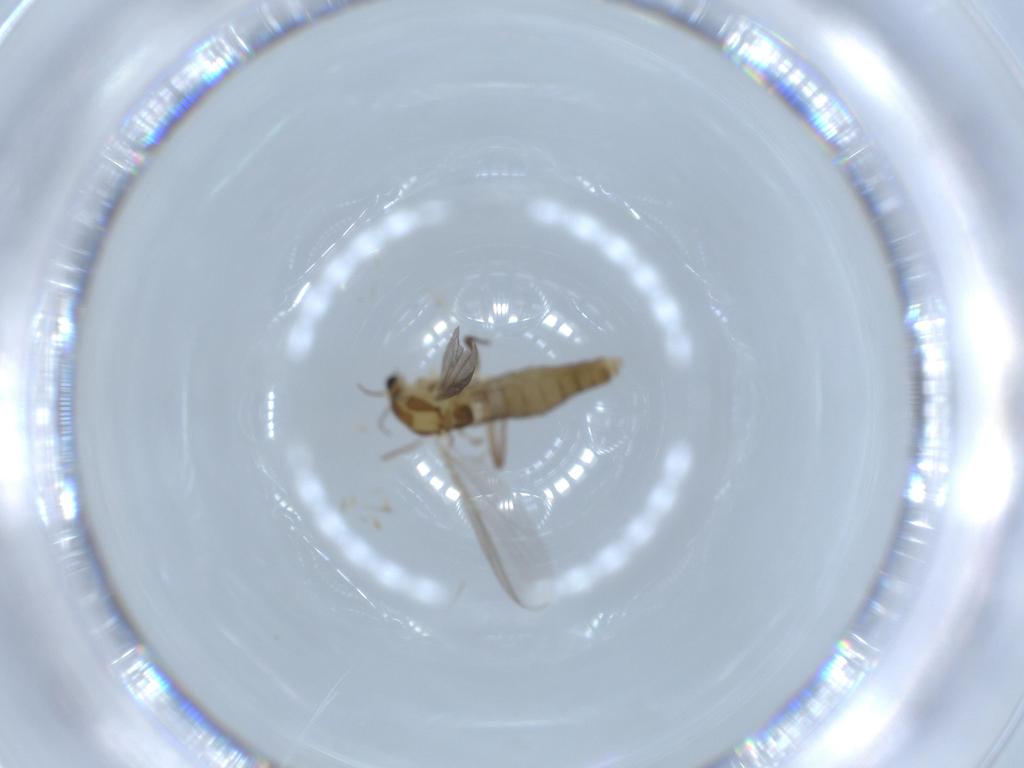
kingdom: Animalia
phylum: Arthropoda
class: Insecta
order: Diptera
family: Chironomidae
